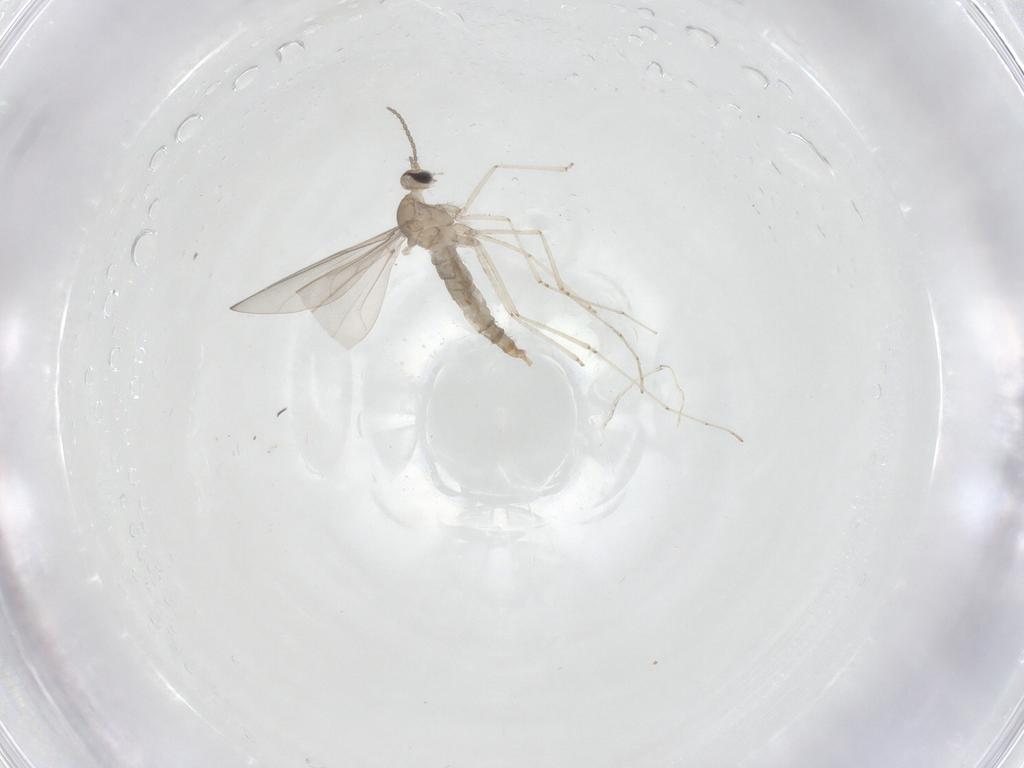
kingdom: Animalia
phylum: Arthropoda
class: Insecta
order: Diptera
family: Cecidomyiidae
